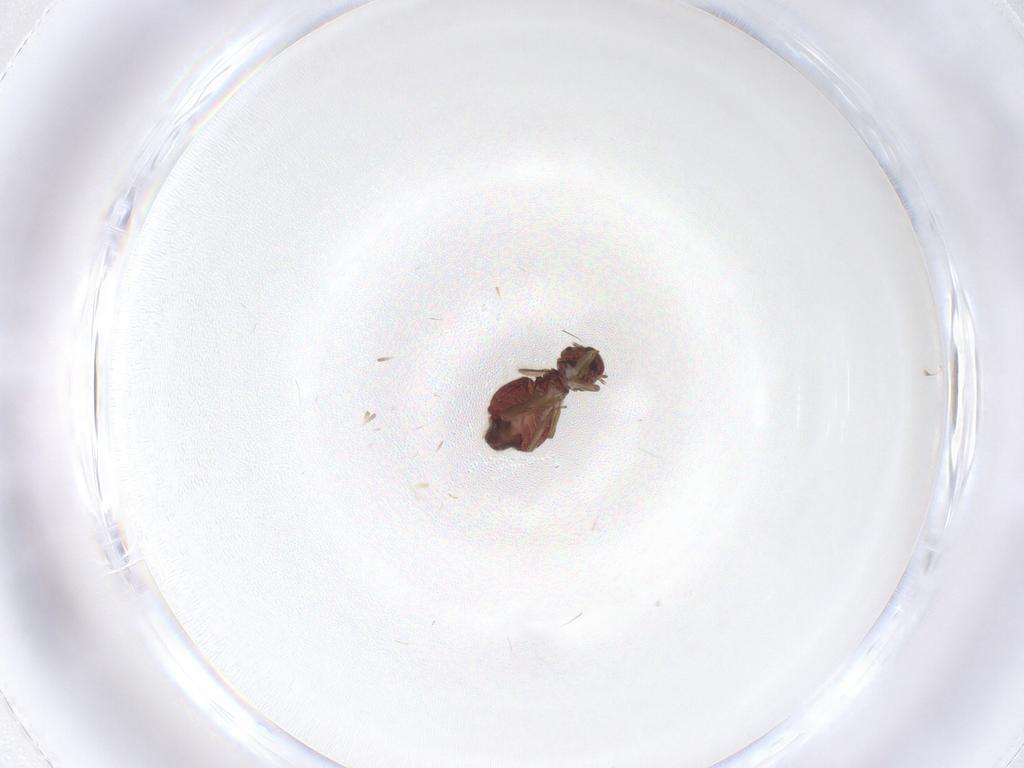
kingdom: Animalia
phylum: Arthropoda
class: Insecta
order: Psocodea
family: Archipsocidae
